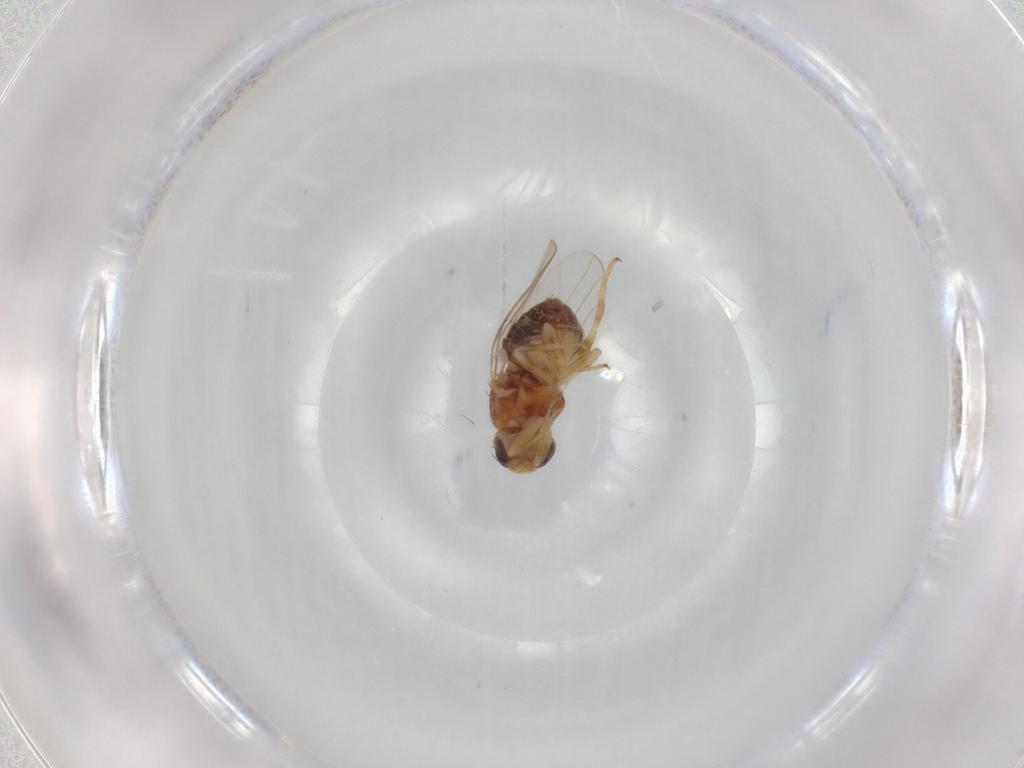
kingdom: Animalia
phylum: Arthropoda
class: Insecta
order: Diptera
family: Chloropidae
